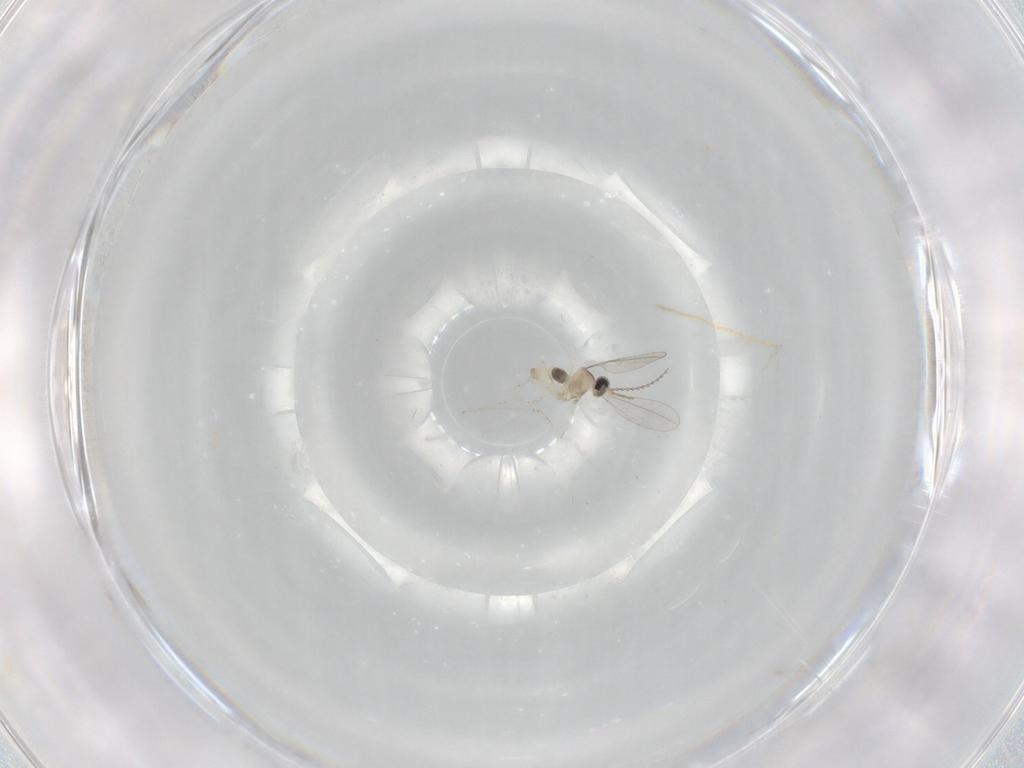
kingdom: Animalia
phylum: Arthropoda
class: Insecta
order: Diptera
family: Cecidomyiidae
